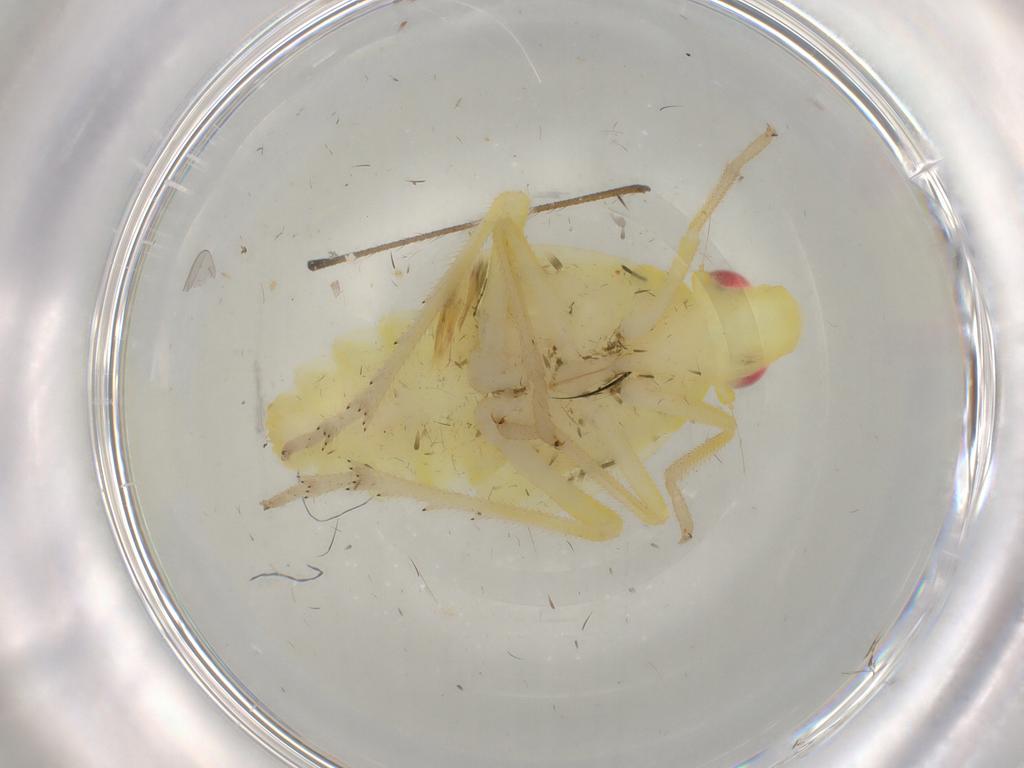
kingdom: Animalia
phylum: Arthropoda
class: Insecta
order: Hemiptera
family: Tropiduchidae
